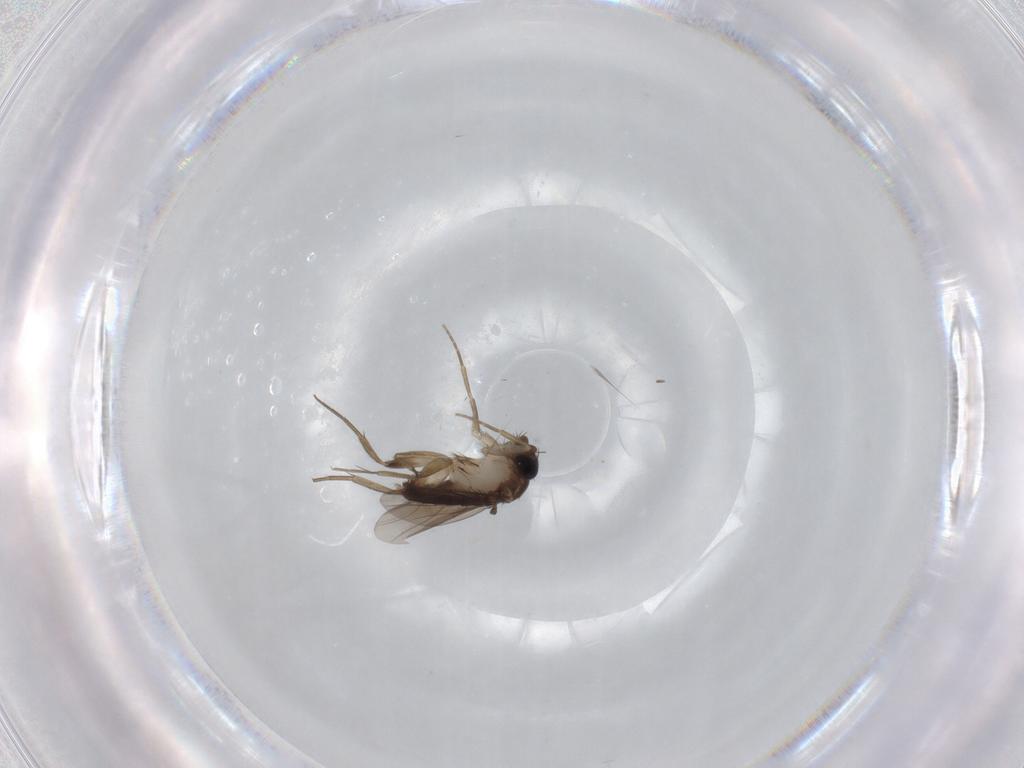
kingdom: Animalia
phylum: Arthropoda
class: Insecta
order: Diptera
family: Phoridae
